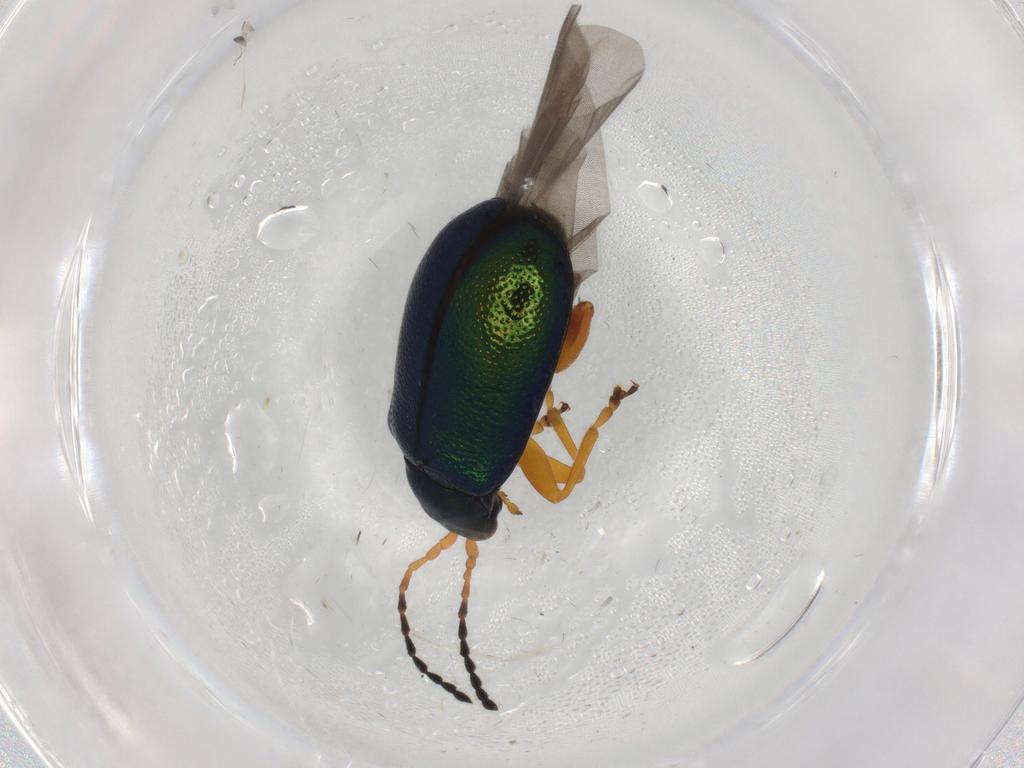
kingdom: Animalia
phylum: Arthropoda
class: Insecta
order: Coleoptera
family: Chrysomelidae
